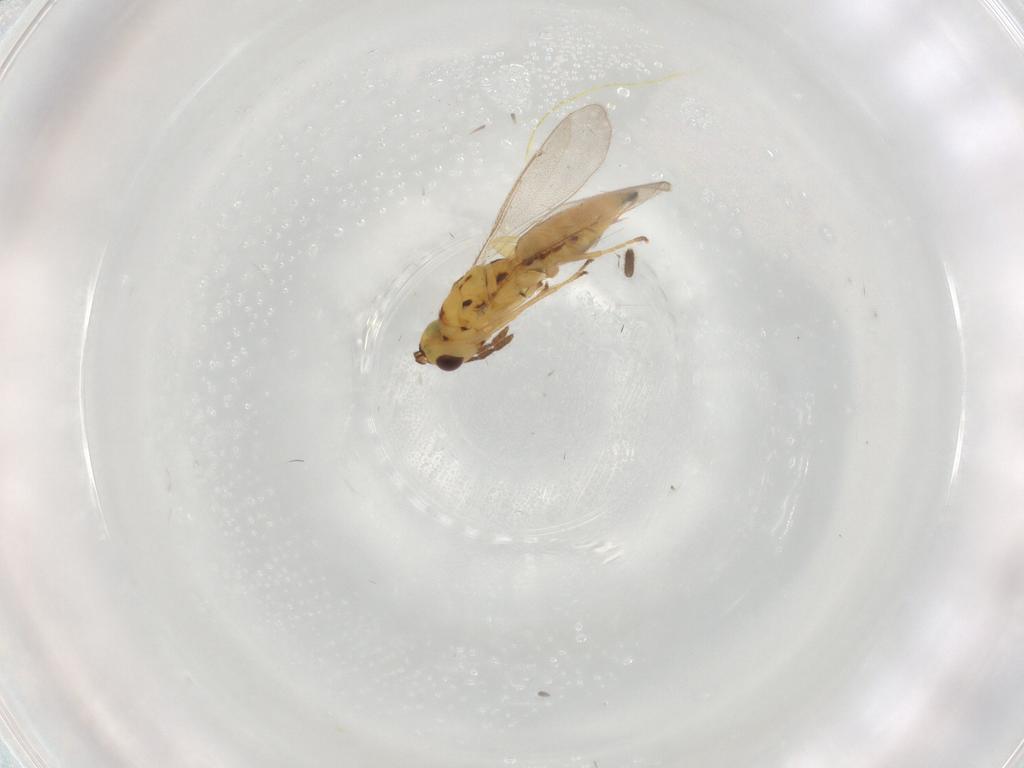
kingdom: Animalia
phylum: Arthropoda
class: Insecta
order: Hymenoptera
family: Eulophidae
